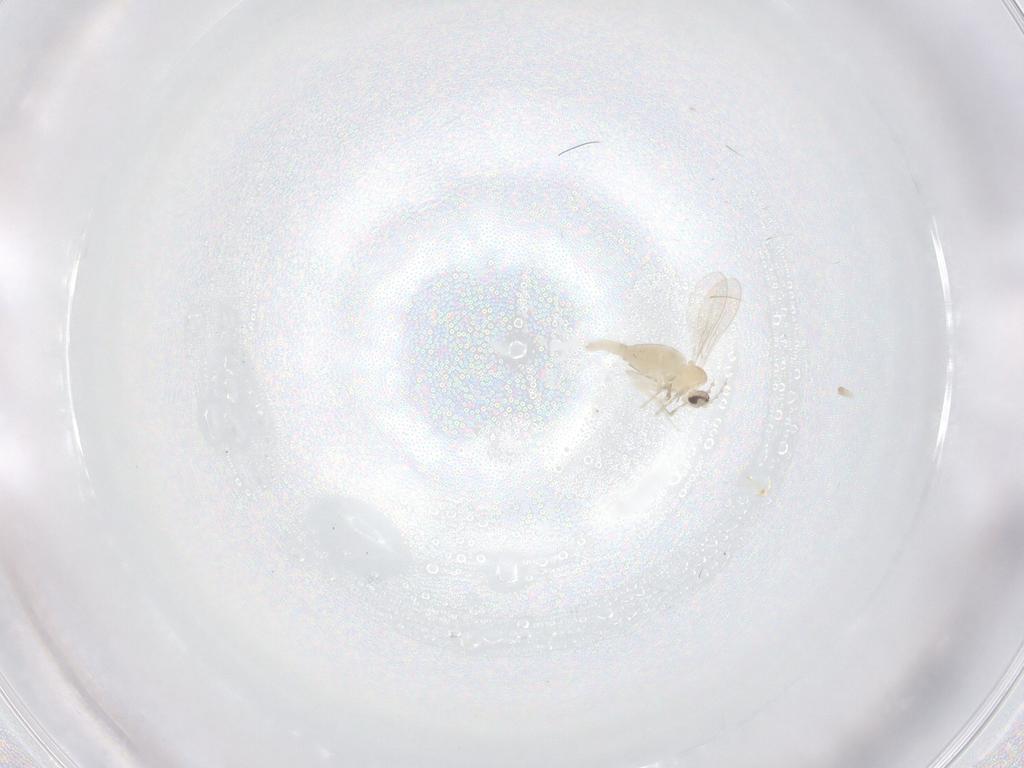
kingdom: Animalia
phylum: Arthropoda
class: Insecta
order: Diptera
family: Cecidomyiidae
